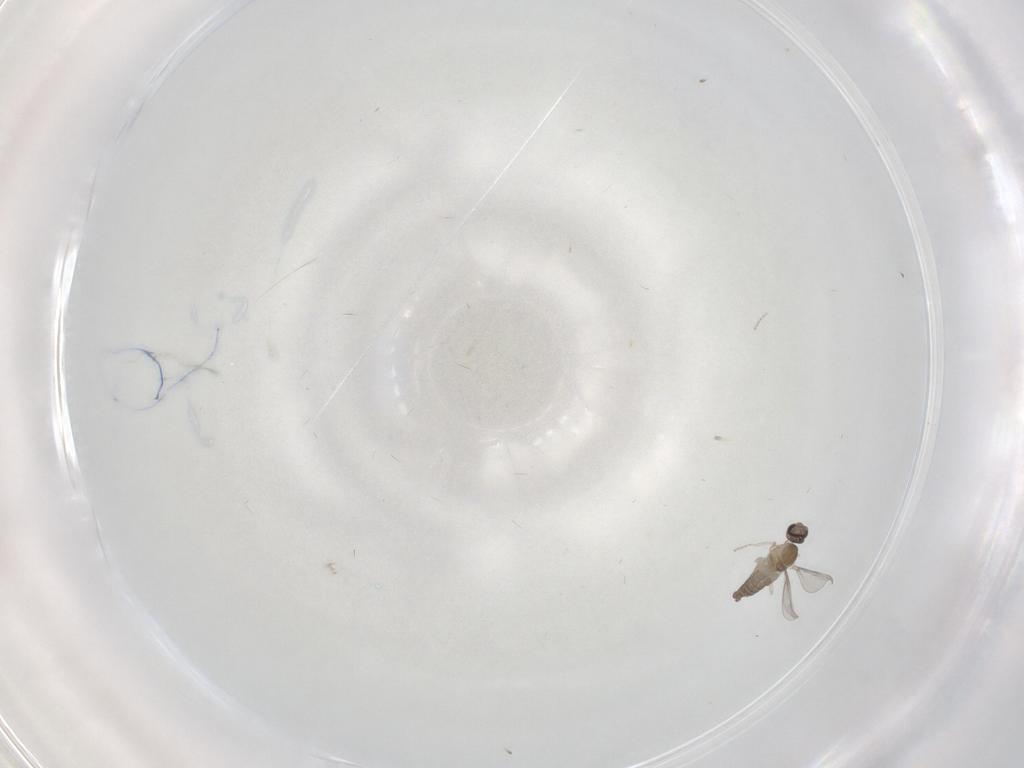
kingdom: Animalia
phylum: Arthropoda
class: Insecta
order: Diptera
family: Cecidomyiidae
